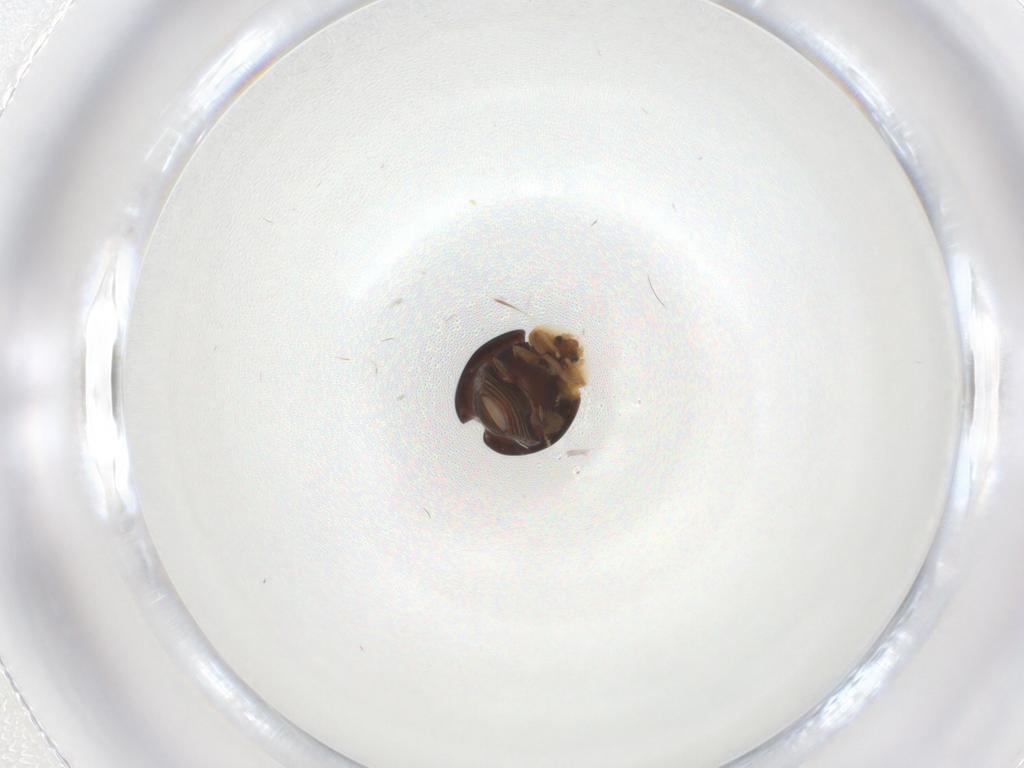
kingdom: Animalia
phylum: Arthropoda
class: Insecta
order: Coleoptera
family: Corylophidae
